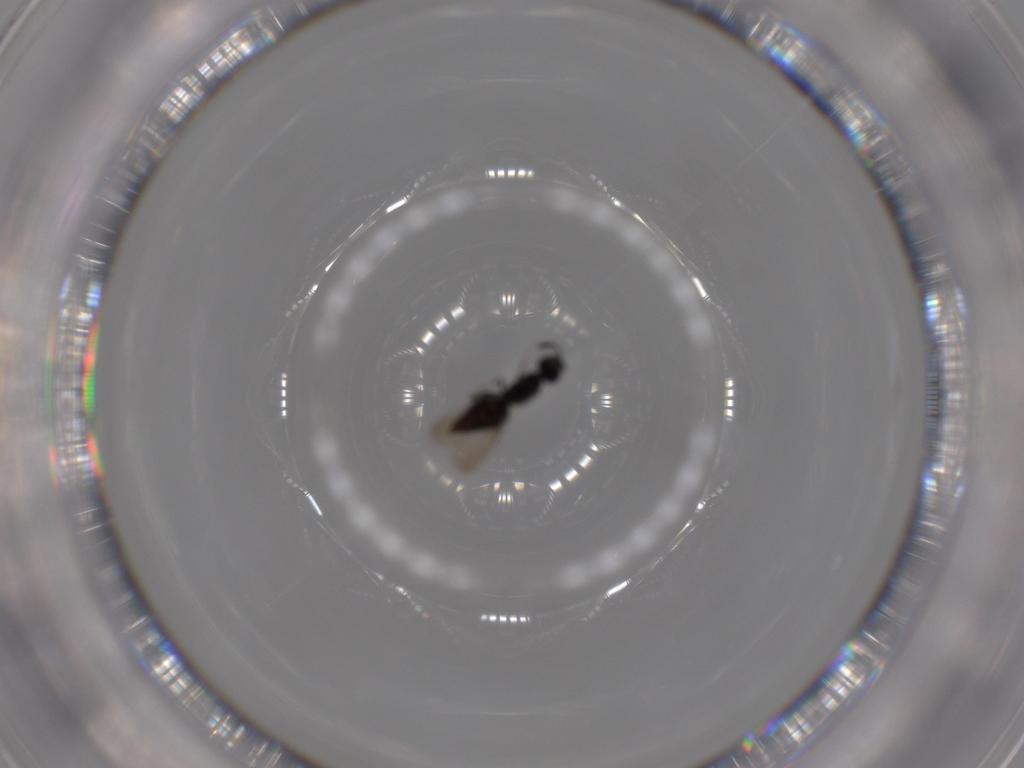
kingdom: Animalia
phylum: Arthropoda
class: Insecta
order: Hymenoptera
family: Ceraphronidae
